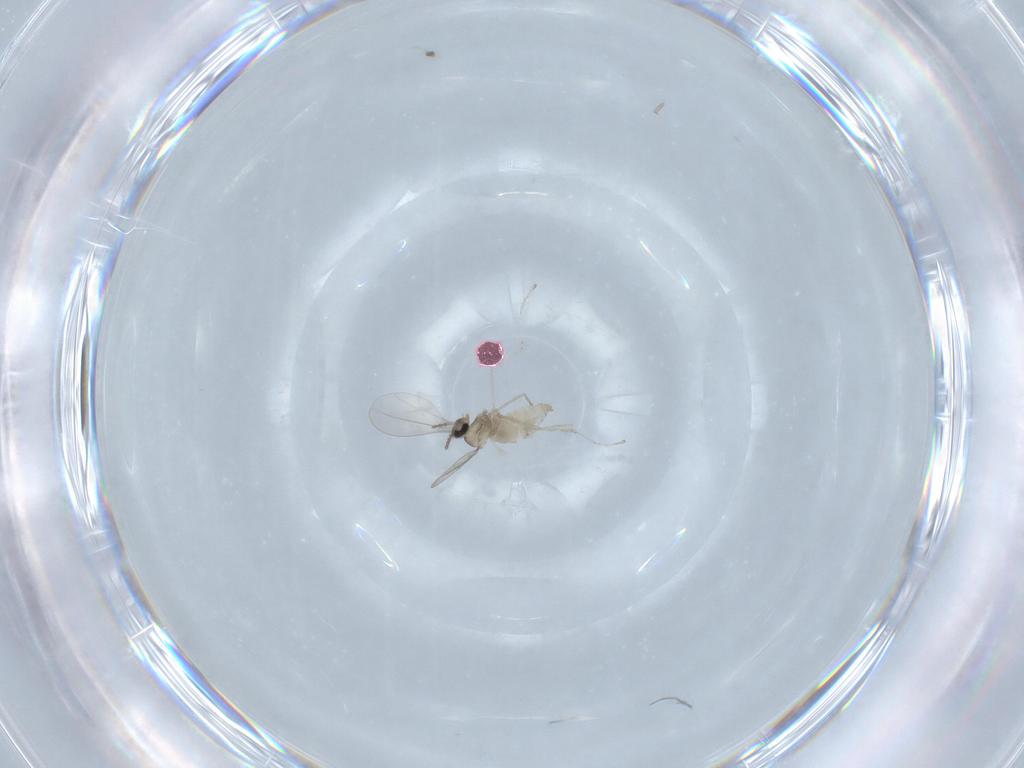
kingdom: Animalia
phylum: Arthropoda
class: Insecta
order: Diptera
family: Cecidomyiidae
